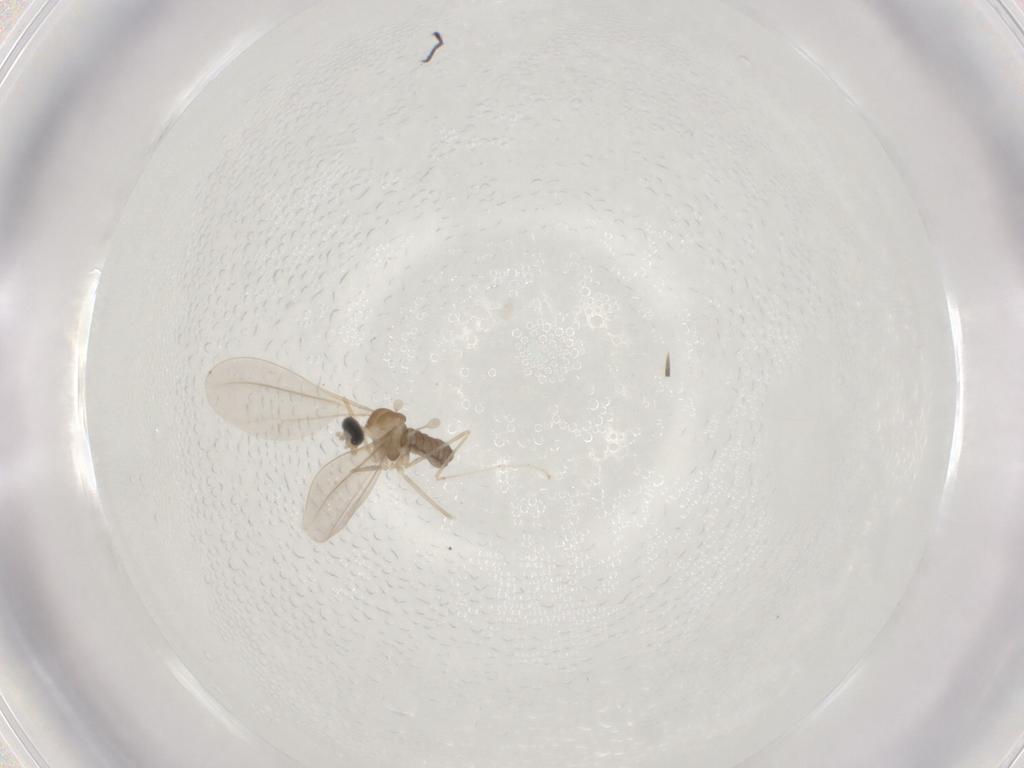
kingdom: Animalia
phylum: Arthropoda
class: Insecta
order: Diptera
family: Cecidomyiidae
